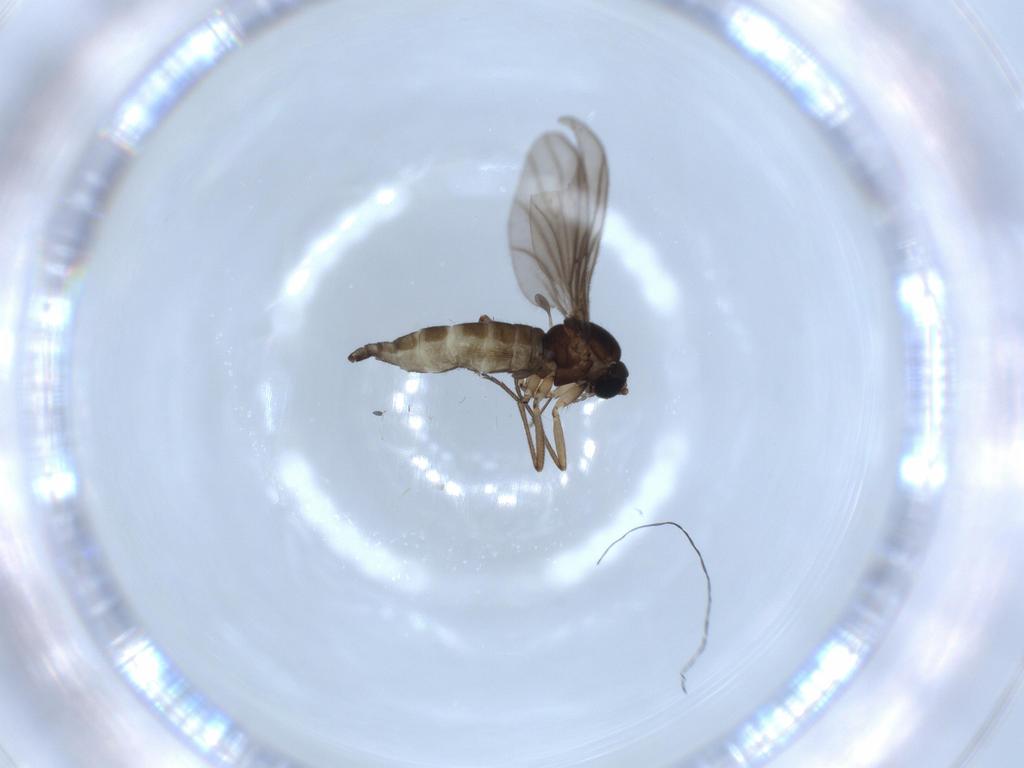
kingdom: Animalia
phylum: Arthropoda
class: Insecta
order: Diptera
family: Sciaridae
